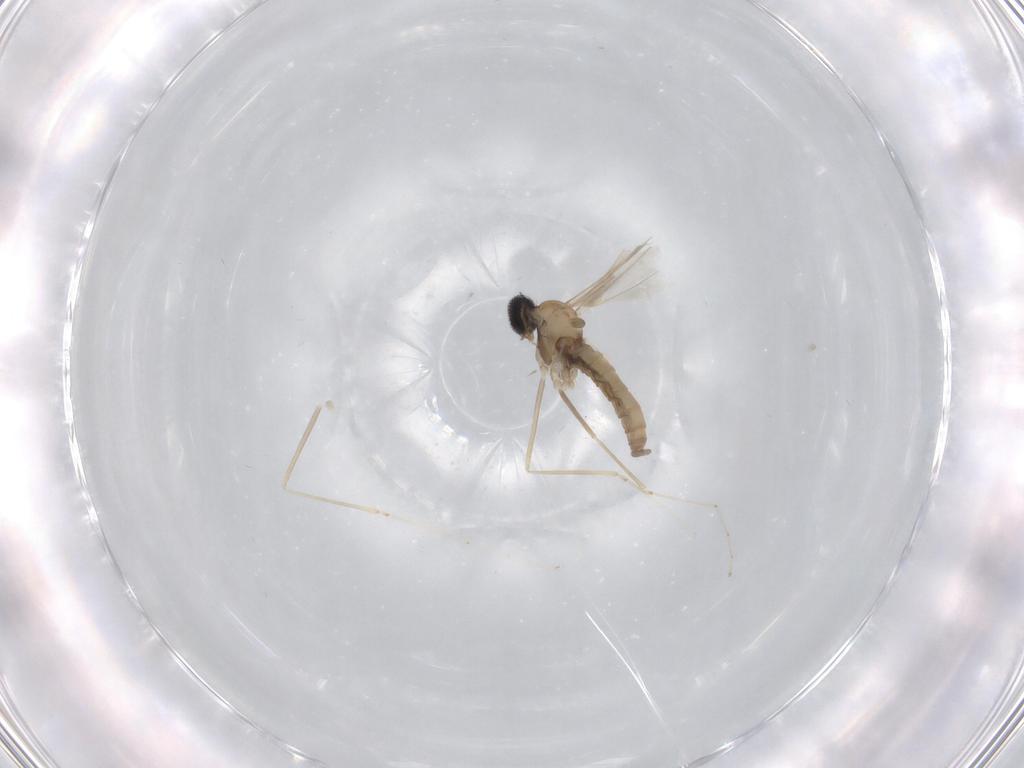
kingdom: Animalia
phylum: Arthropoda
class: Insecta
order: Diptera
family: Cecidomyiidae
